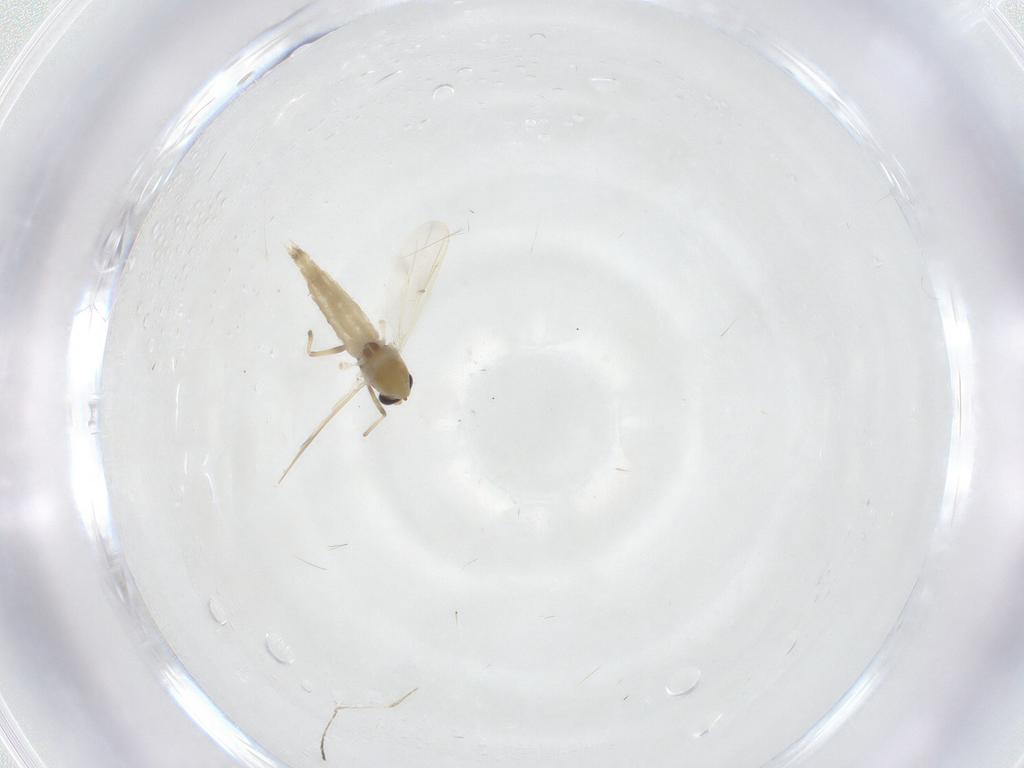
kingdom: Animalia
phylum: Arthropoda
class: Insecta
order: Diptera
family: Chironomidae
